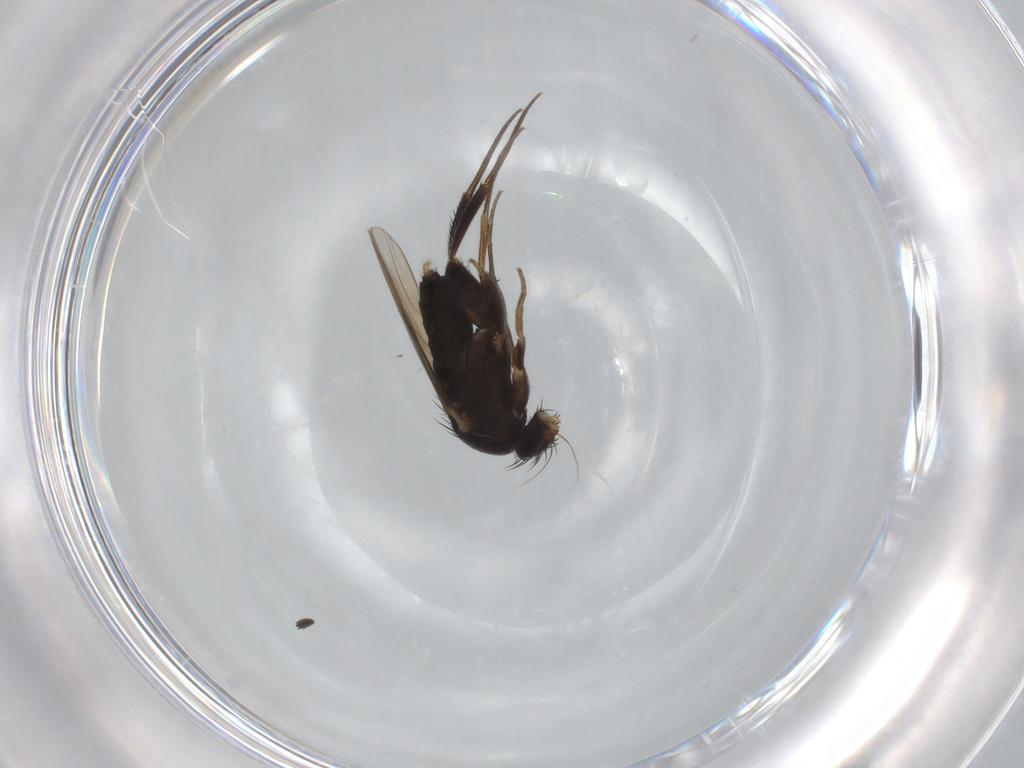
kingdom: Animalia
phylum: Arthropoda
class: Insecta
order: Diptera
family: Phoridae
